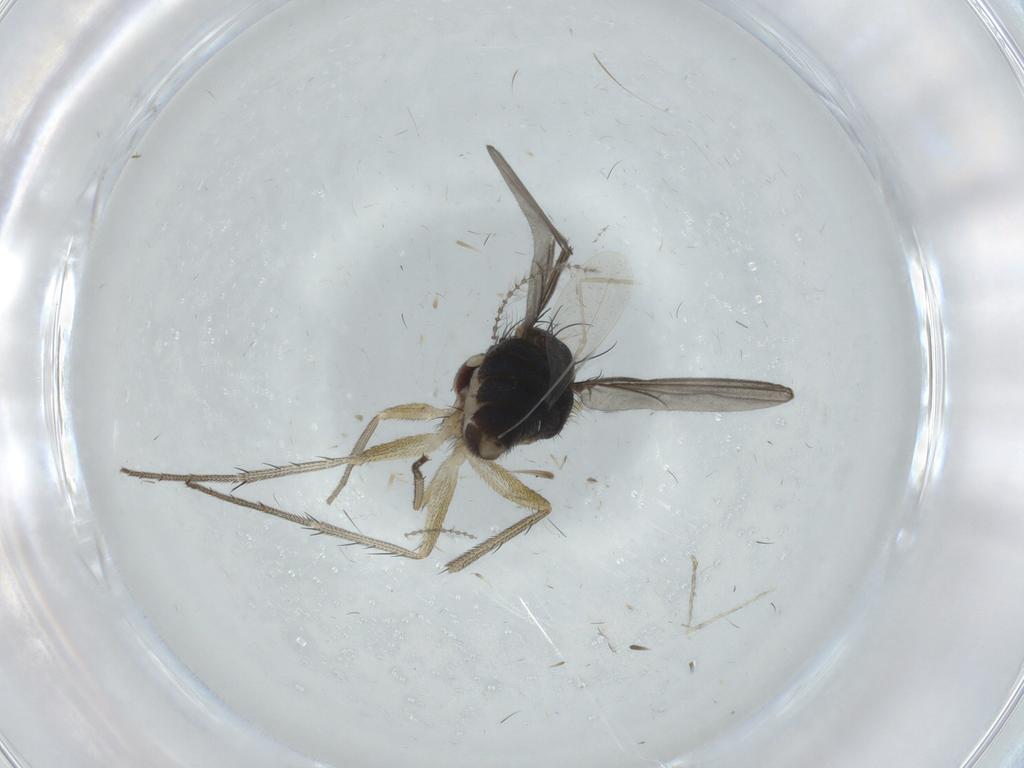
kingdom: Animalia
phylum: Arthropoda
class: Insecta
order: Diptera
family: Dolichopodidae
